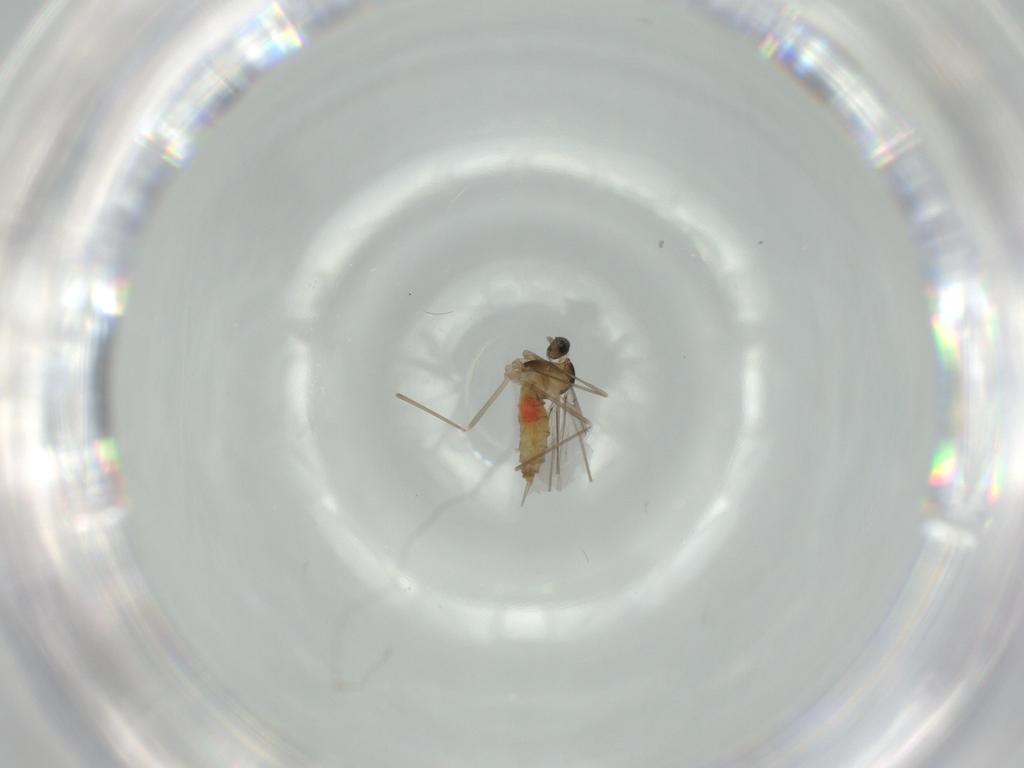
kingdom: Animalia
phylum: Arthropoda
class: Insecta
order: Diptera
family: Cecidomyiidae
